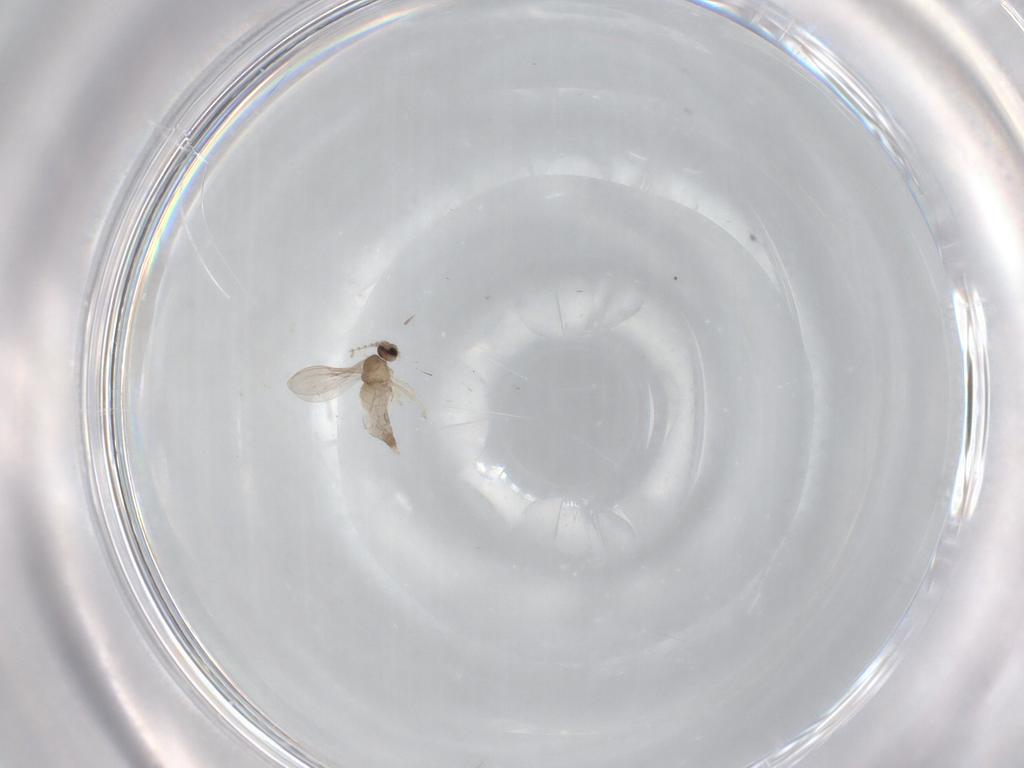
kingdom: Animalia
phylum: Arthropoda
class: Insecta
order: Diptera
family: Cecidomyiidae
